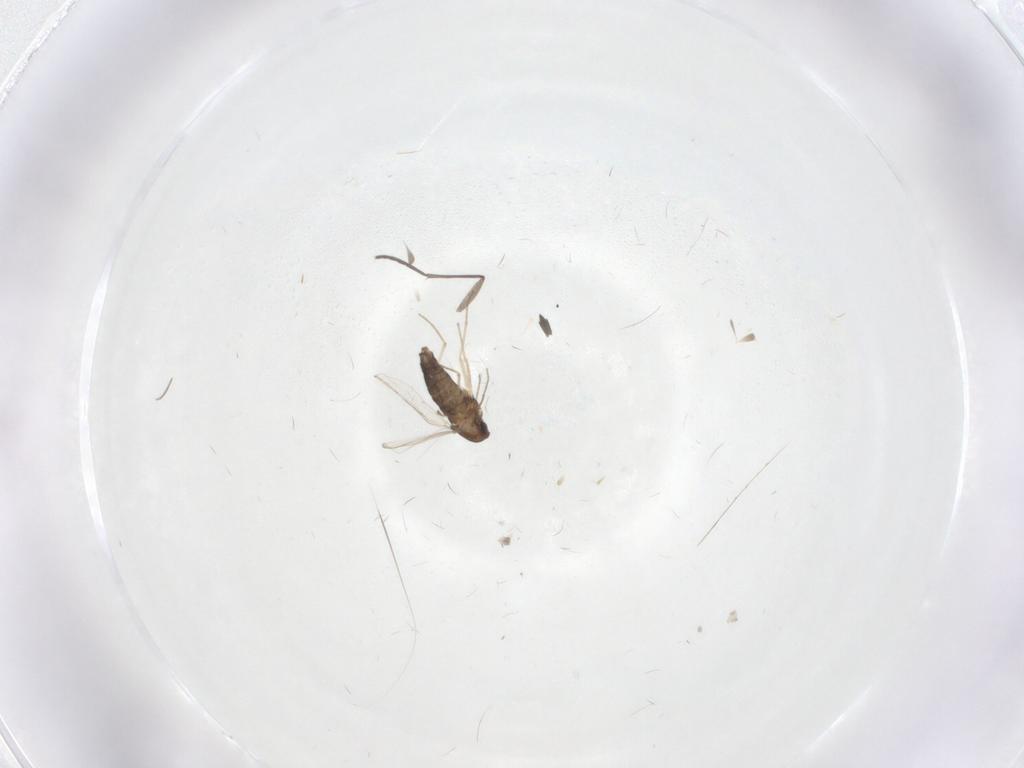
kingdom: Animalia
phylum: Arthropoda
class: Insecta
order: Diptera
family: Chironomidae
